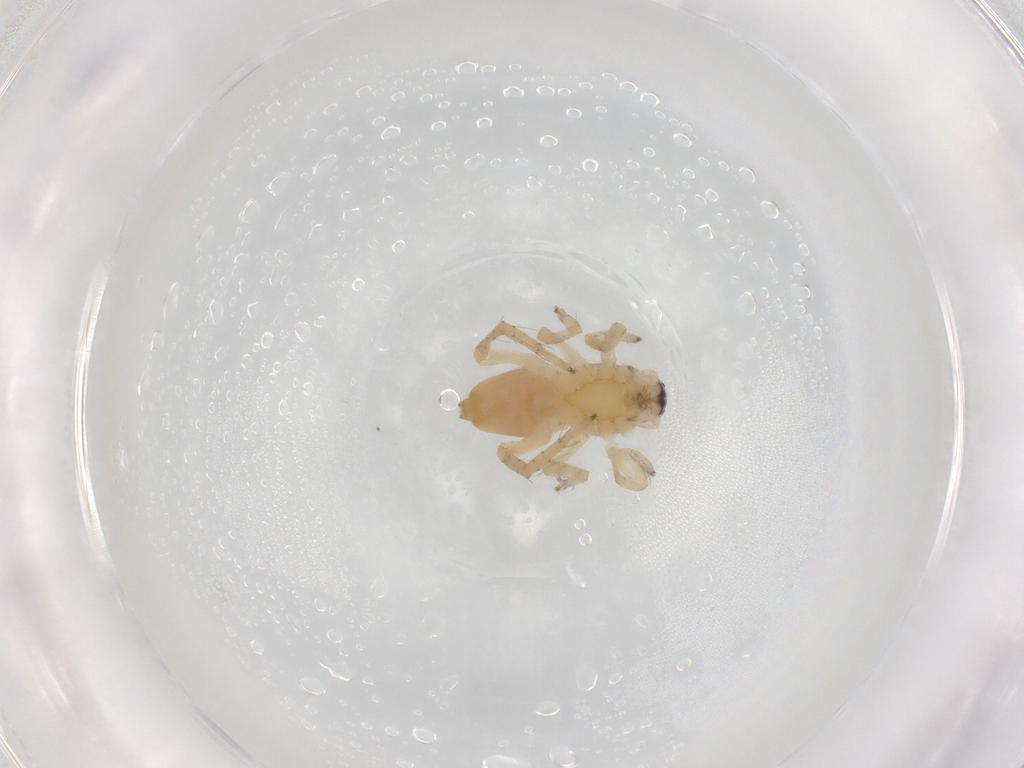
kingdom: Animalia
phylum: Arthropoda
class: Arachnida
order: Araneae
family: Clubionidae
